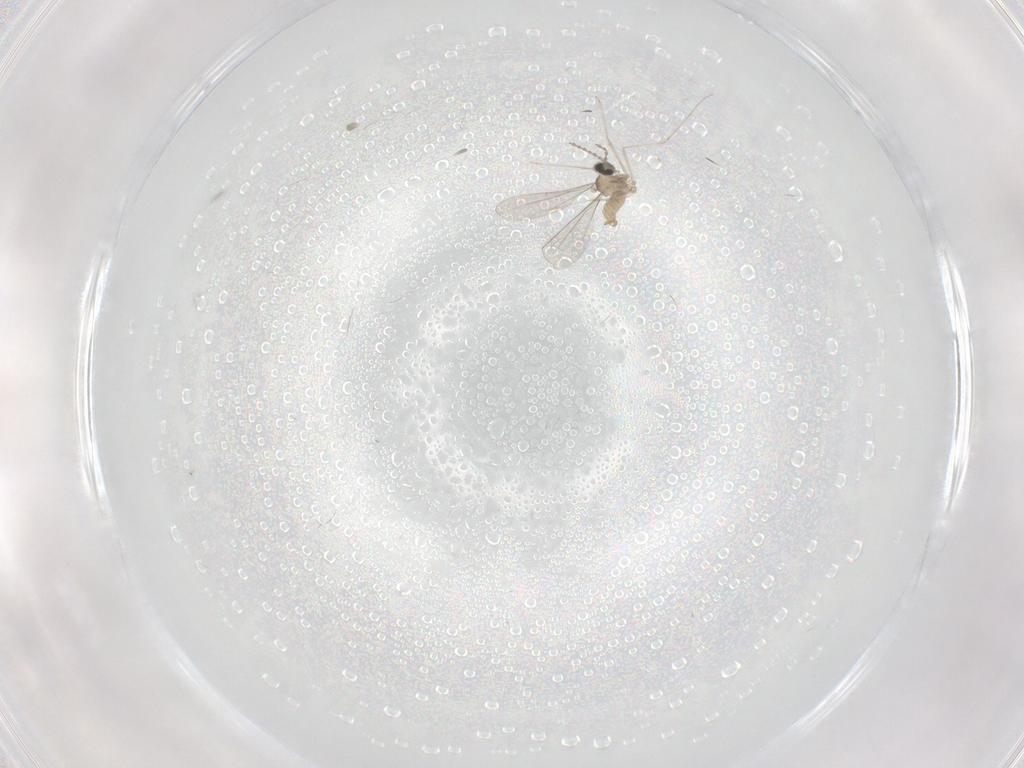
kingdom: Animalia
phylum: Arthropoda
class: Insecta
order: Diptera
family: Cecidomyiidae
